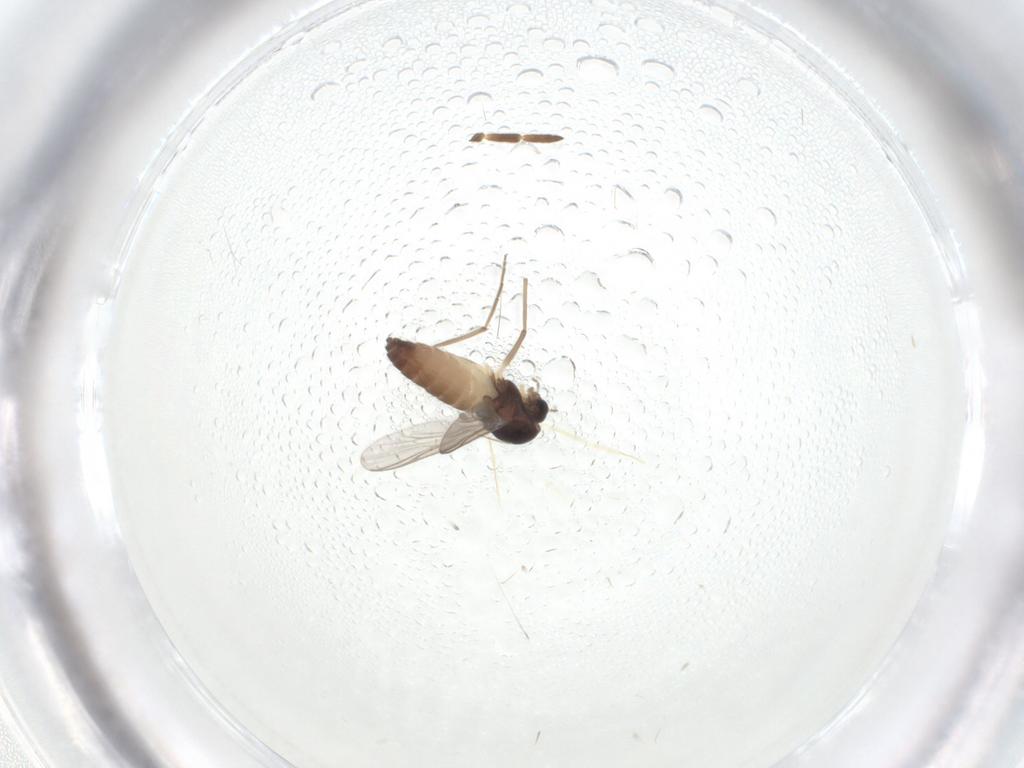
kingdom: Animalia
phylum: Arthropoda
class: Insecta
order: Diptera
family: Chironomidae
